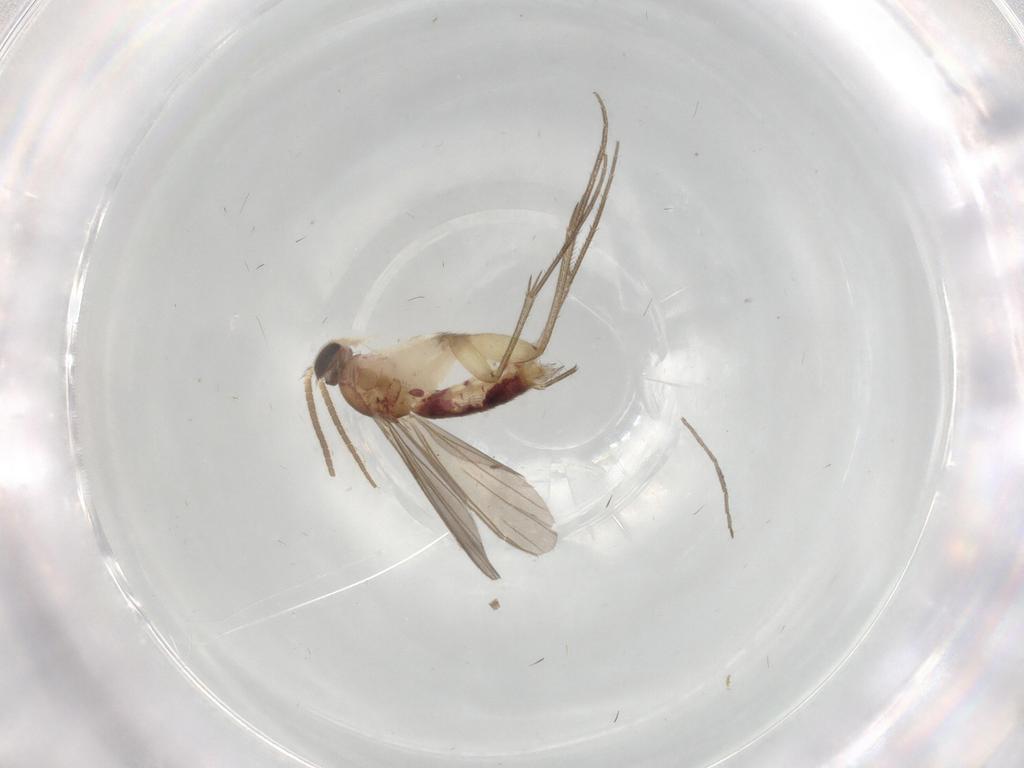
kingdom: Animalia
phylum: Arthropoda
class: Insecta
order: Diptera
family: Mycetophilidae
